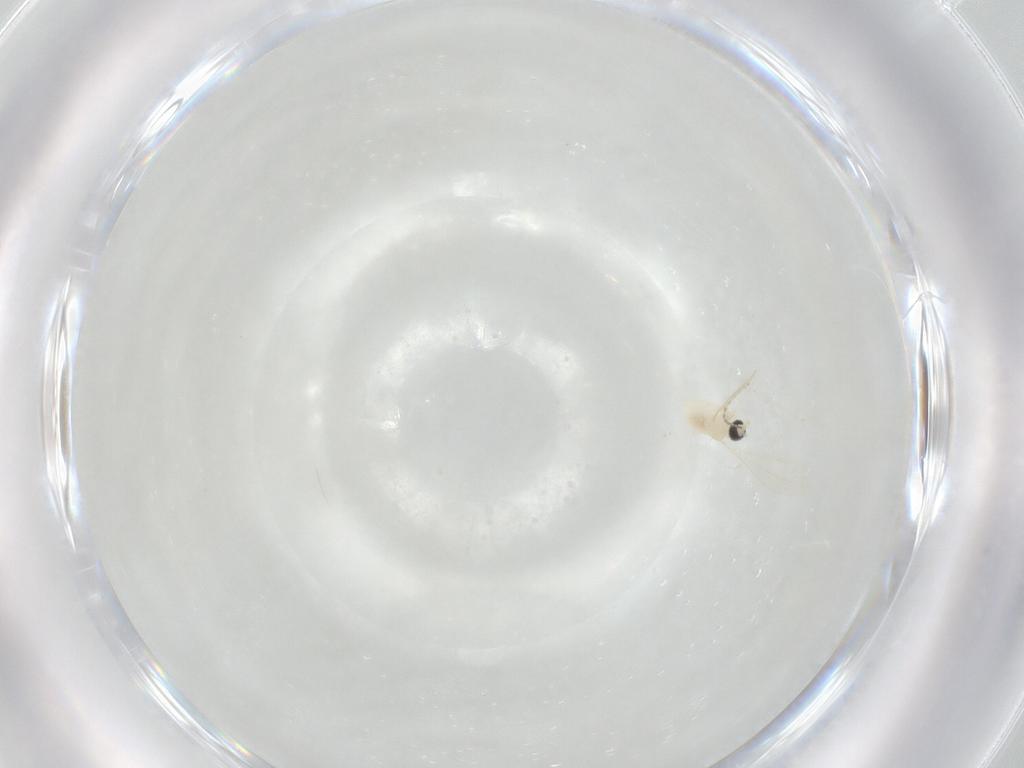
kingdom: Animalia
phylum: Arthropoda
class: Insecta
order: Diptera
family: Cecidomyiidae
